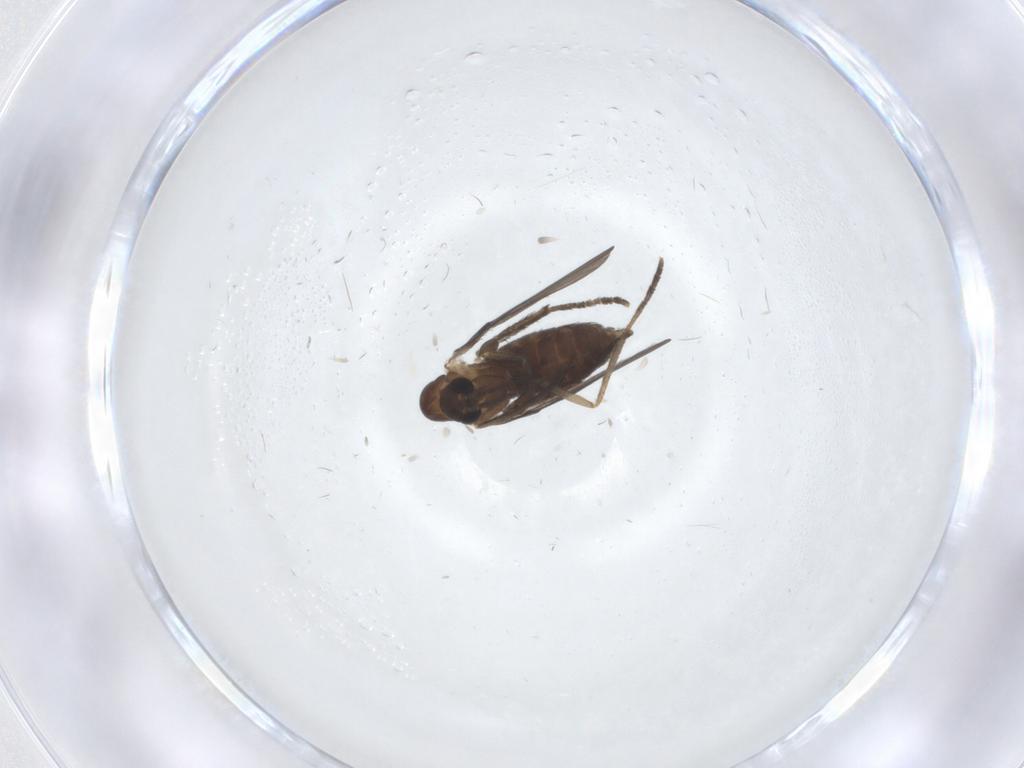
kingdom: Animalia
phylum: Arthropoda
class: Insecta
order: Diptera
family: Psychodidae
